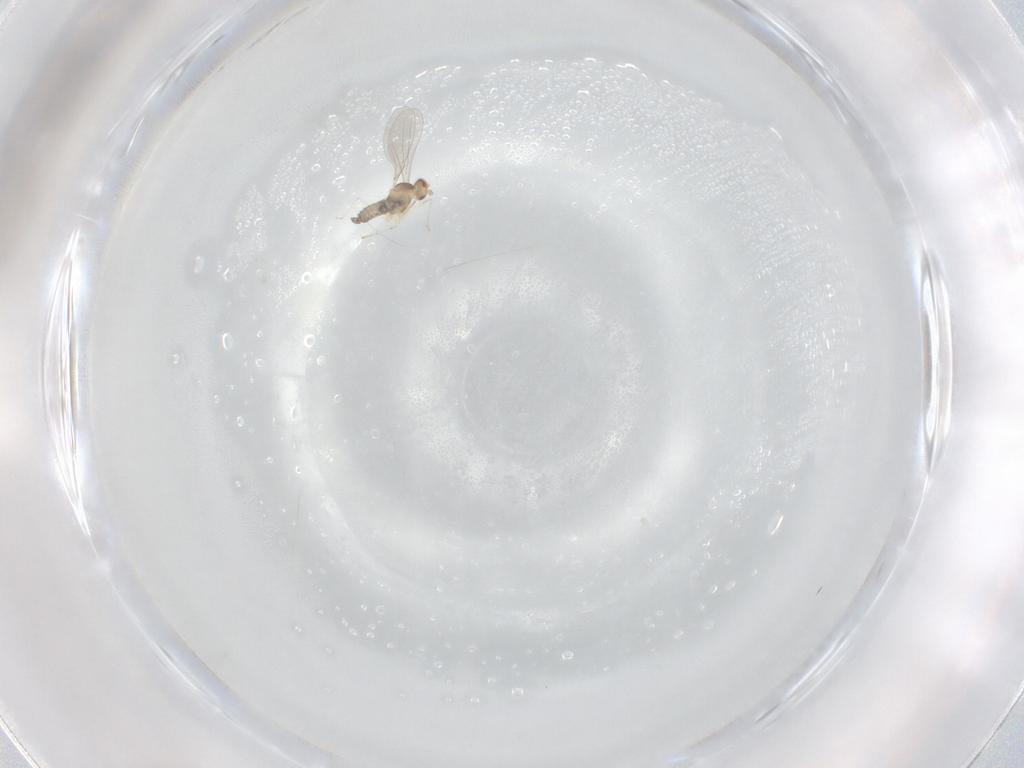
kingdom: Animalia
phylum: Arthropoda
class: Insecta
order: Diptera
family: Cecidomyiidae
